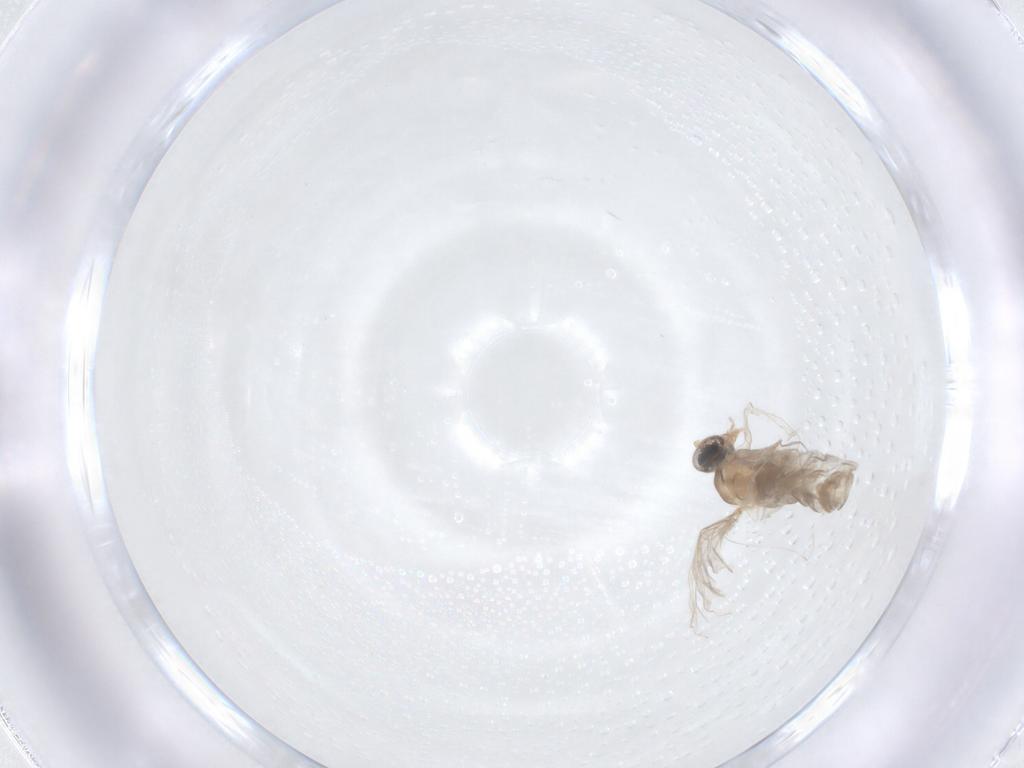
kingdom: Animalia
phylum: Arthropoda
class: Insecta
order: Diptera
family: Cecidomyiidae
